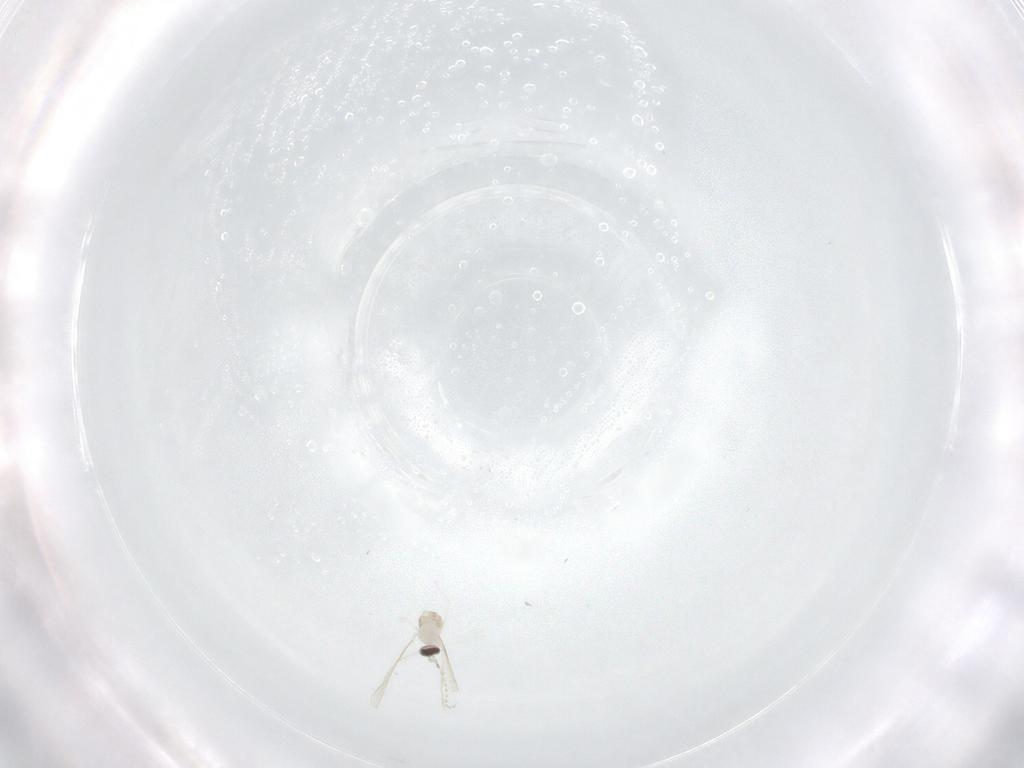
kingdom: Animalia
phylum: Arthropoda
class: Insecta
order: Diptera
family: Cecidomyiidae
